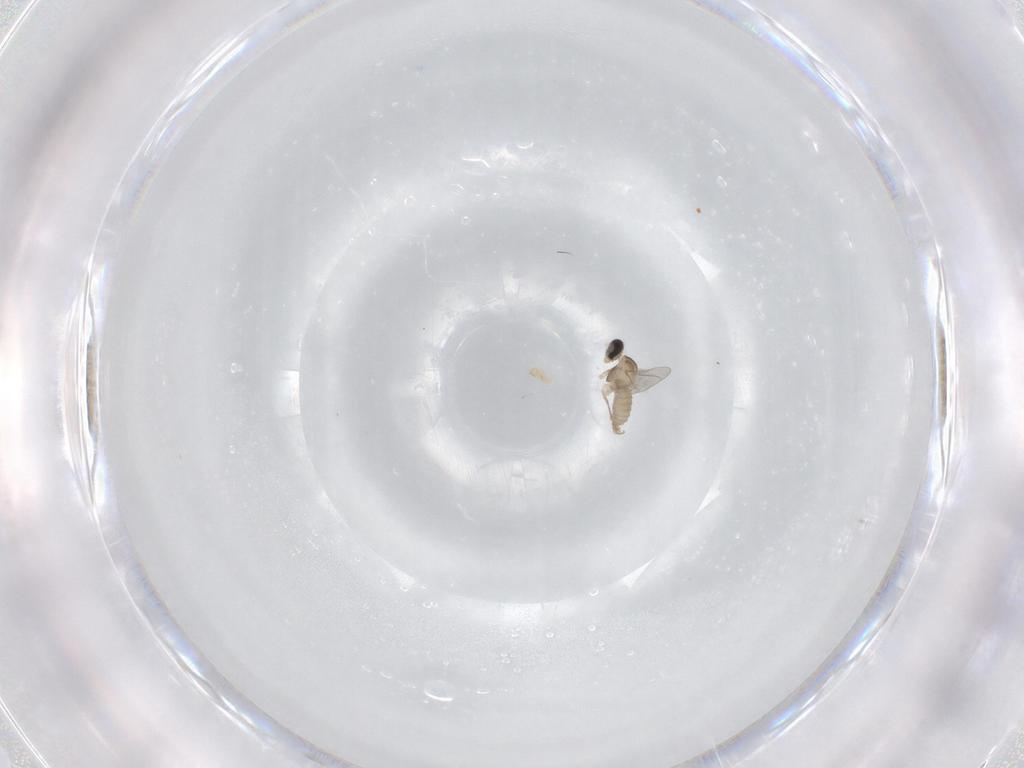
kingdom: Animalia
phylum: Arthropoda
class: Insecta
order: Diptera
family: Cecidomyiidae
